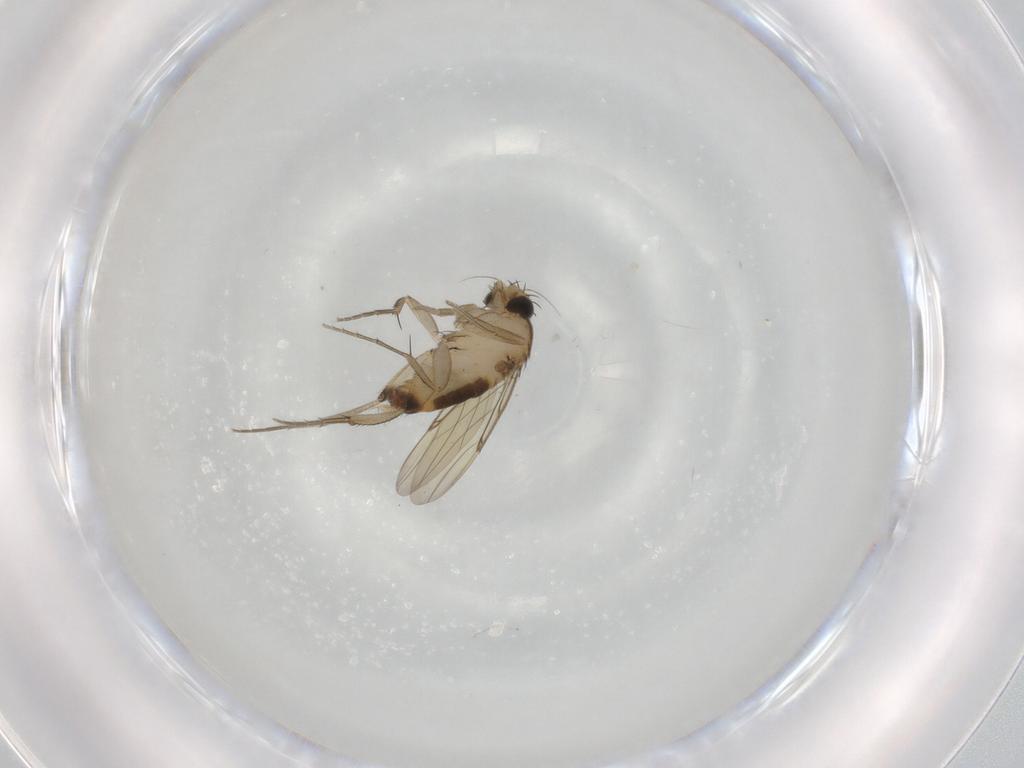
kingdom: Animalia
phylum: Arthropoda
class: Insecta
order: Diptera
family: Phoridae
